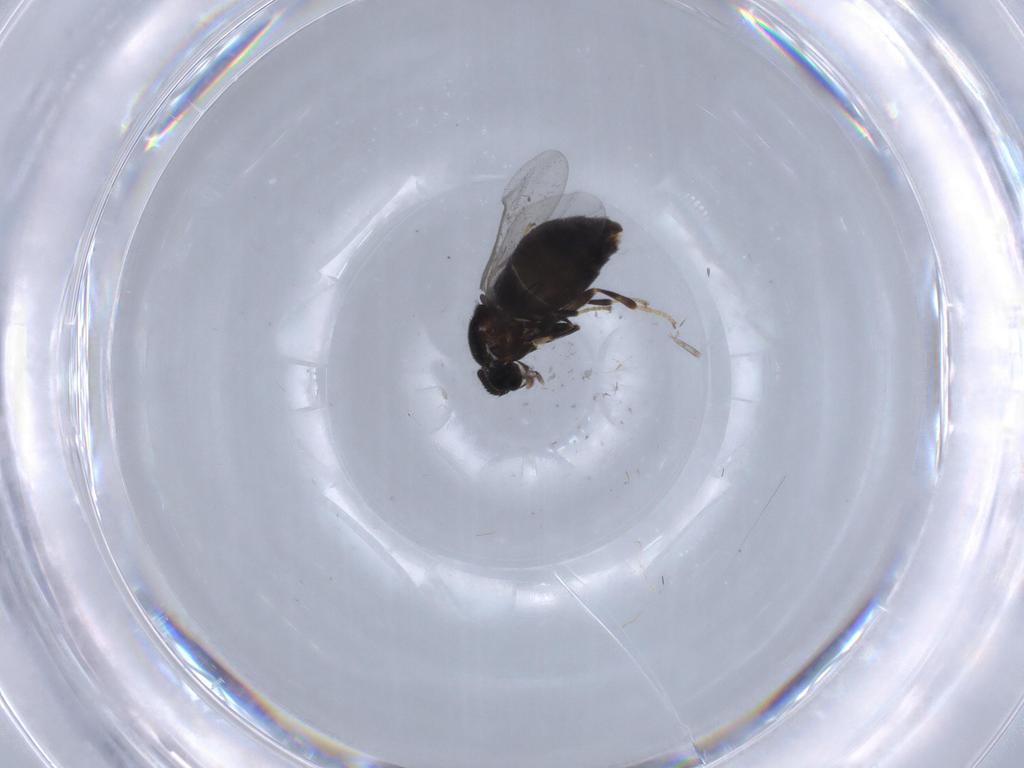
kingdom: Animalia
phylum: Arthropoda
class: Insecta
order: Diptera
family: Scatopsidae
